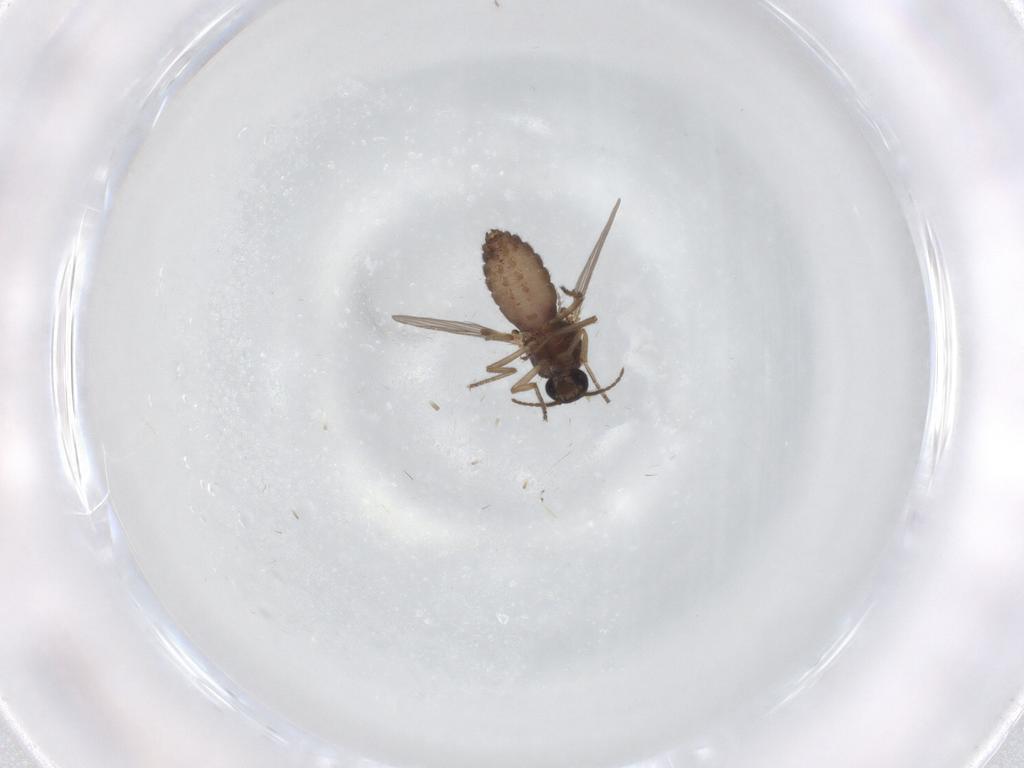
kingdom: Animalia
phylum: Arthropoda
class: Insecta
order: Diptera
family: Ceratopogonidae
